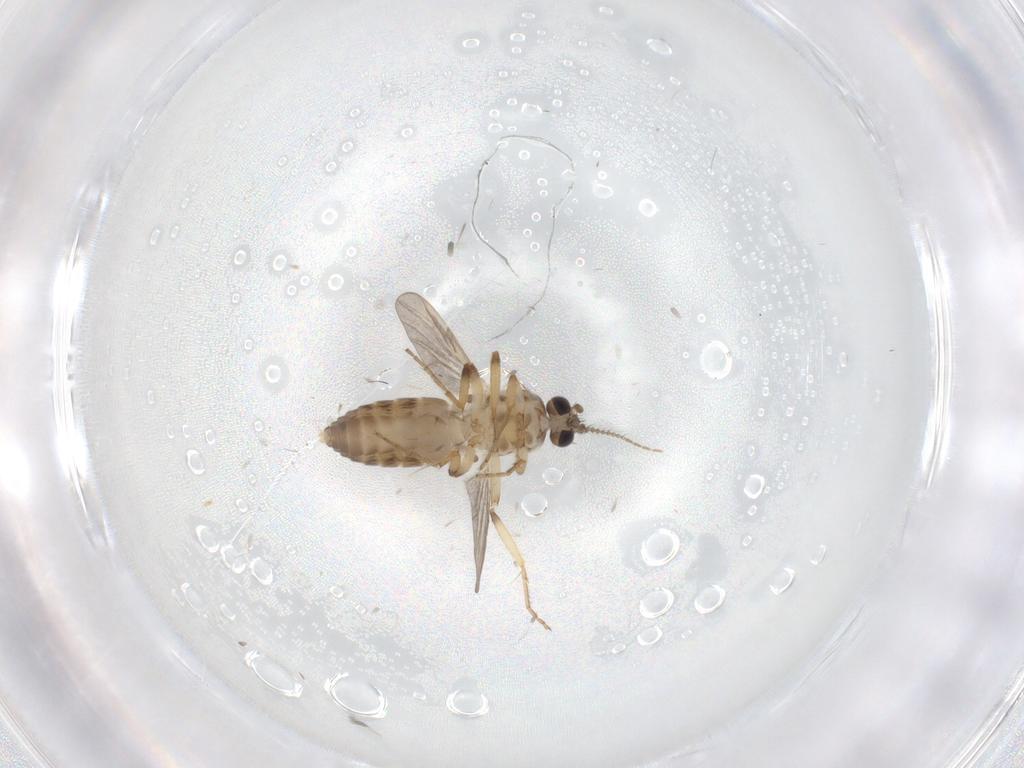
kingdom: Animalia
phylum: Arthropoda
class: Insecta
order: Diptera
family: Ceratopogonidae
